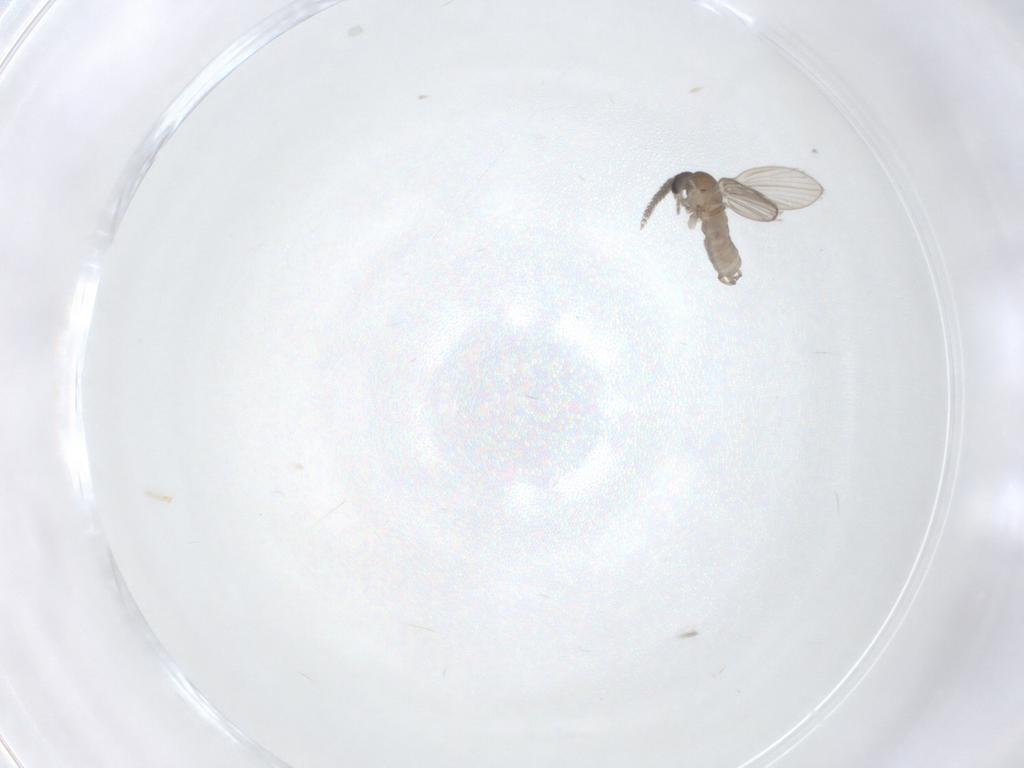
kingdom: Animalia
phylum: Arthropoda
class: Insecta
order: Diptera
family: Psychodidae
